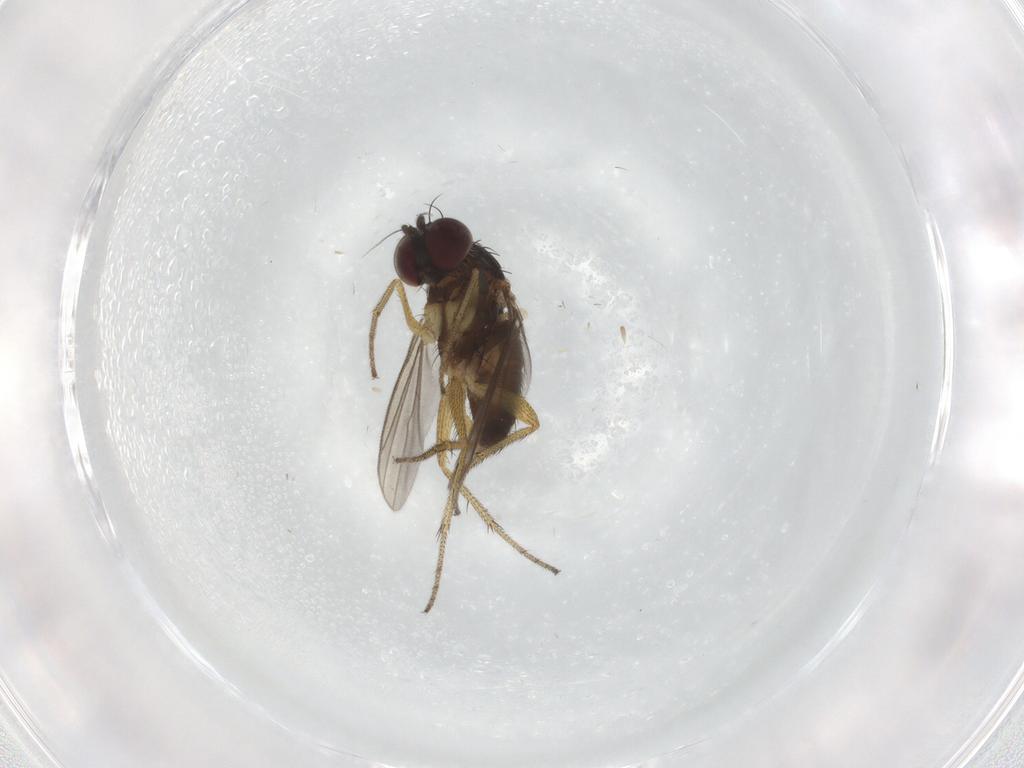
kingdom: Animalia
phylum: Arthropoda
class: Insecta
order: Diptera
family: Dolichopodidae
